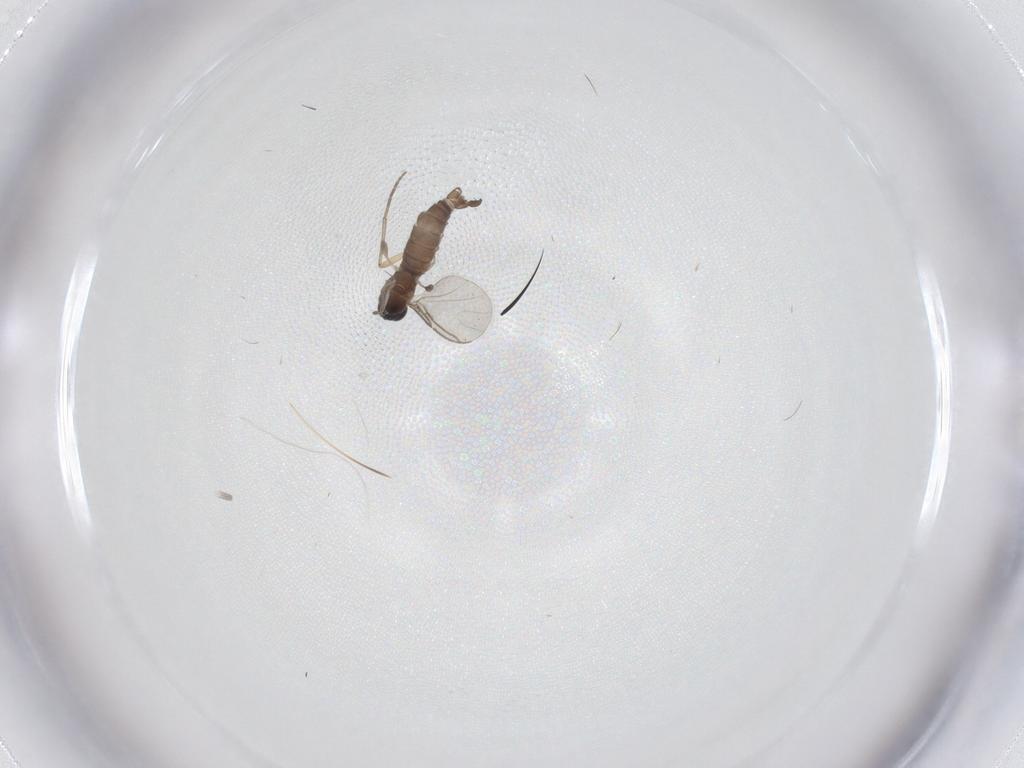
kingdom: Animalia
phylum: Arthropoda
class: Insecta
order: Diptera
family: Sciaridae
